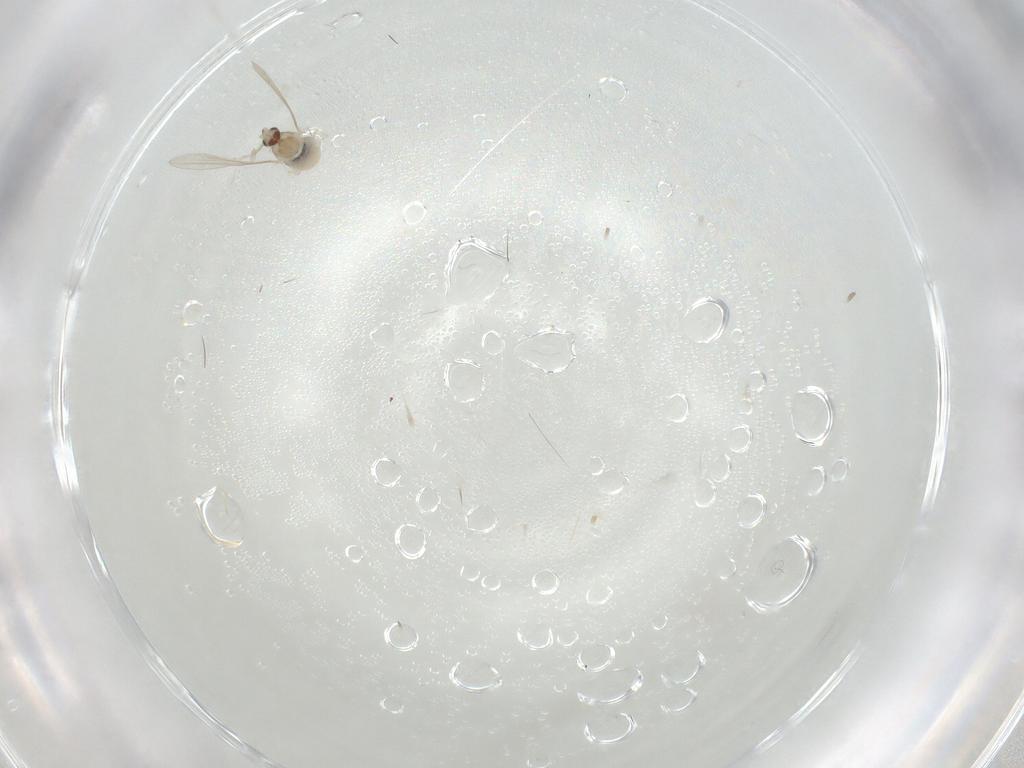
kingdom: Animalia
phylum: Arthropoda
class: Insecta
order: Diptera
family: Cecidomyiidae
